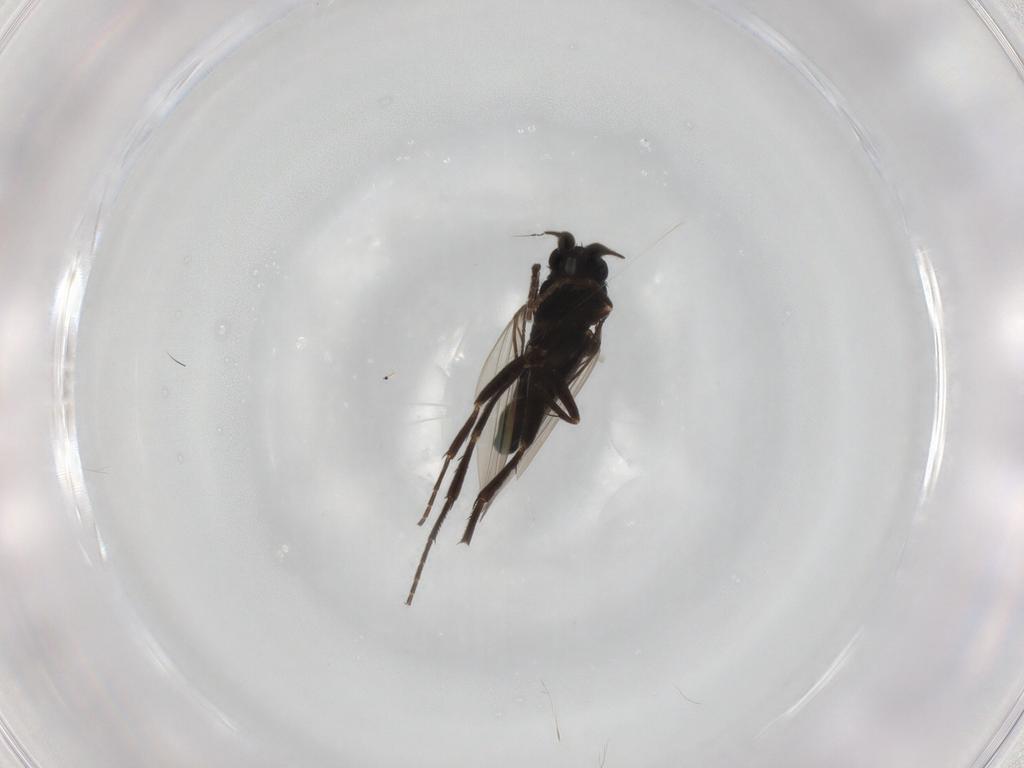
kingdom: Animalia
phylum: Arthropoda
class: Insecta
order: Diptera
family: Phoridae
